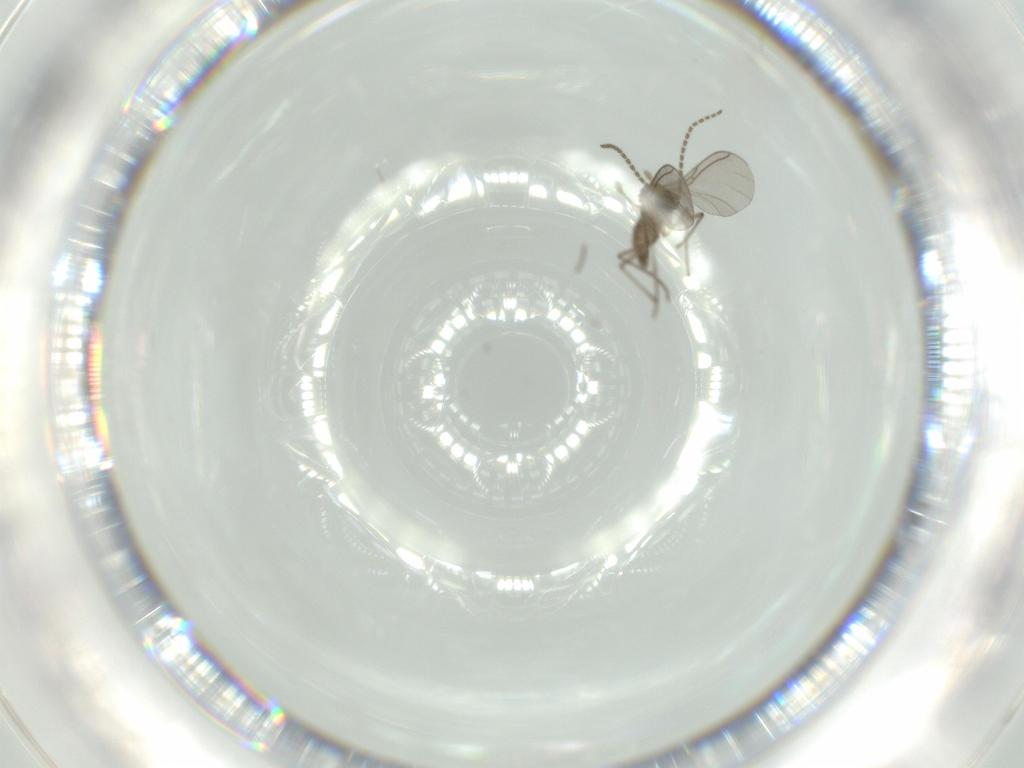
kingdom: Animalia
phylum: Arthropoda
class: Insecta
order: Diptera
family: Sciaridae
